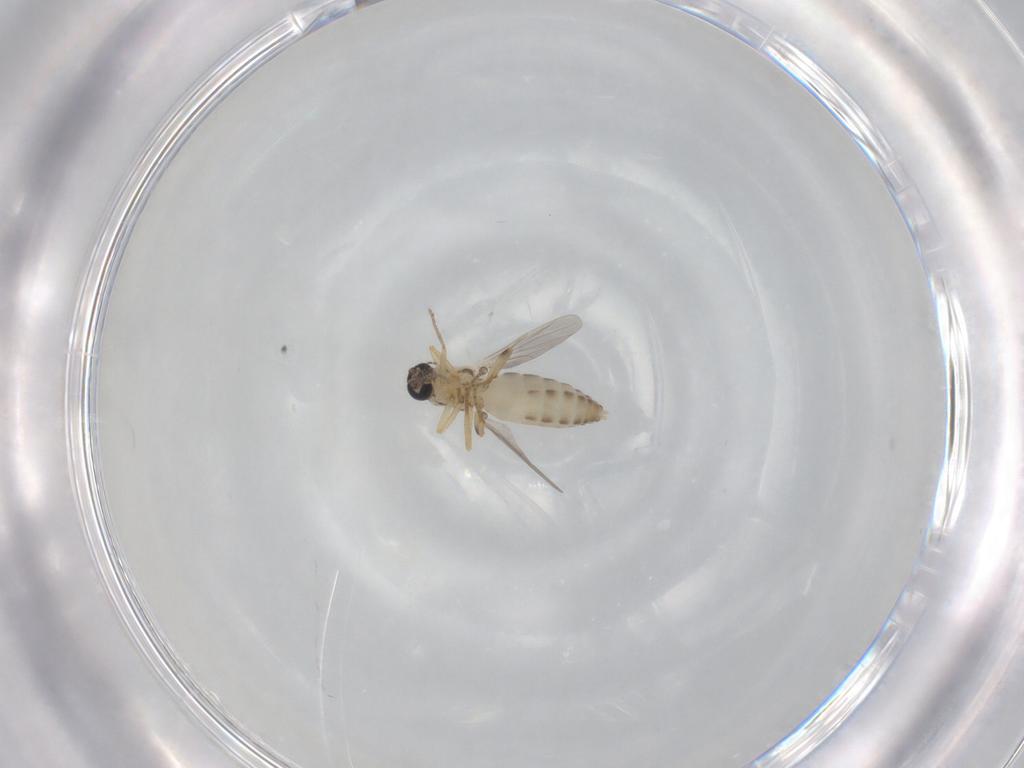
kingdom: Animalia
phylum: Arthropoda
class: Insecta
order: Diptera
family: Ceratopogonidae
